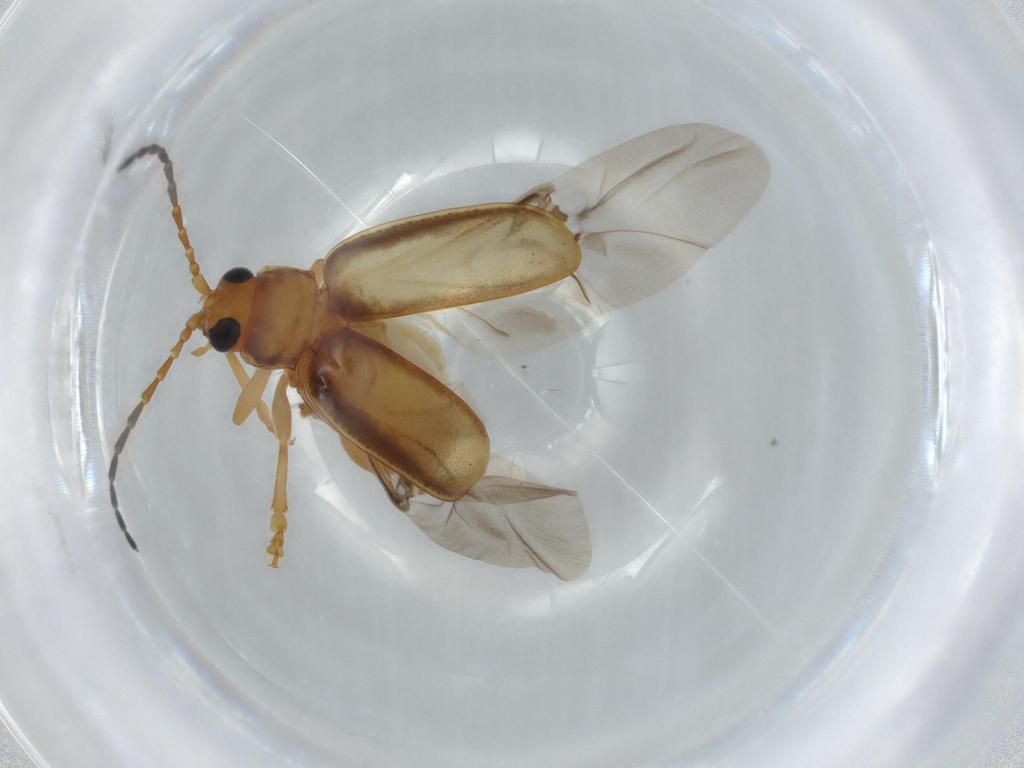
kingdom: Animalia
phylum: Arthropoda
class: Insecta
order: Coleoptera
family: Chrysomelidae
